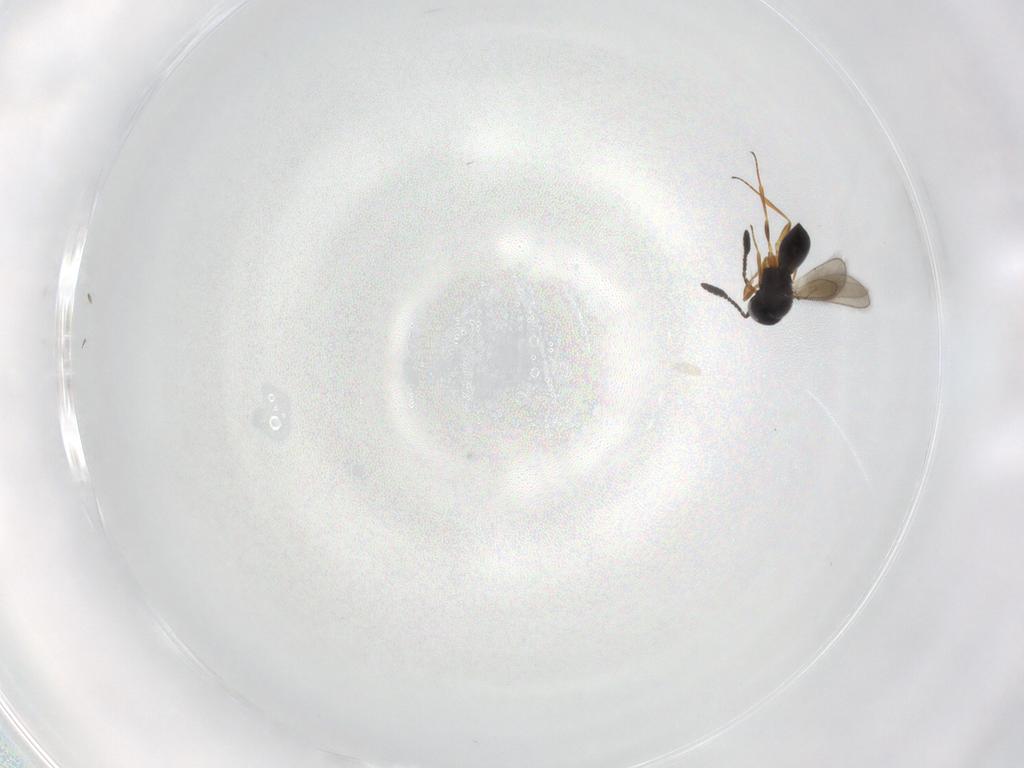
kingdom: Animalia
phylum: Arthropoda
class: Insecta
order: Hymenoptera
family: Scelionidae
